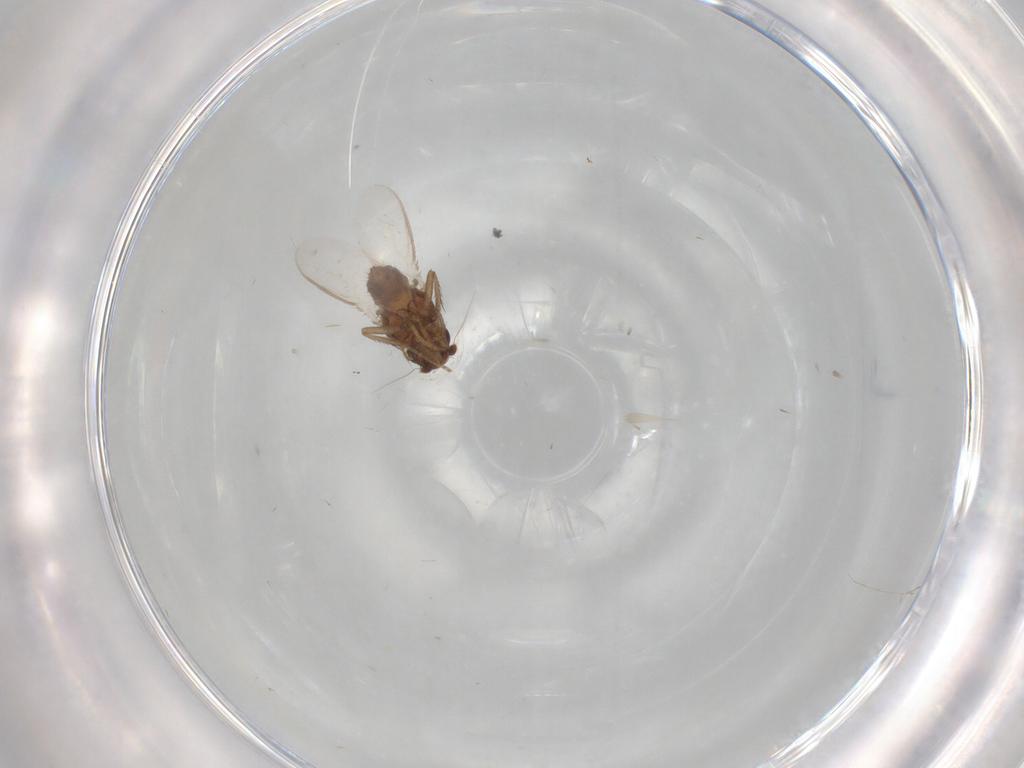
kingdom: Animalia
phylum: Arthropoda
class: Insecta
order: Diptera
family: Sphaeroceridae
